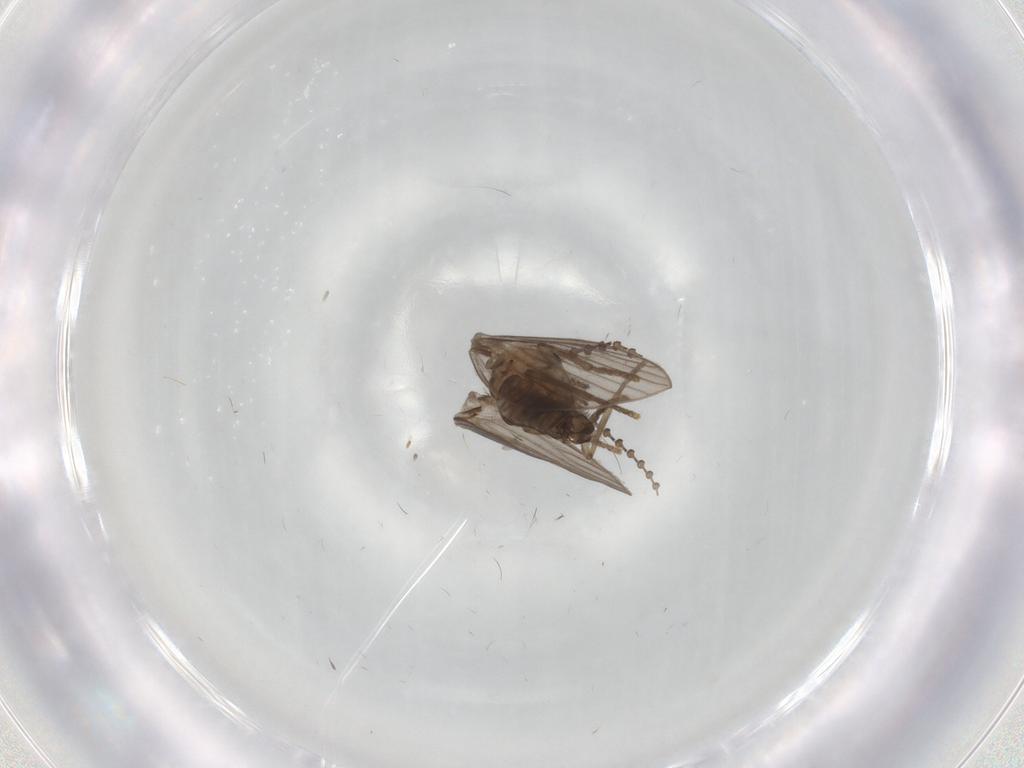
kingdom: Animalia
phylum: Arthropoda
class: Insecta
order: Diptera
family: Psychodidae
